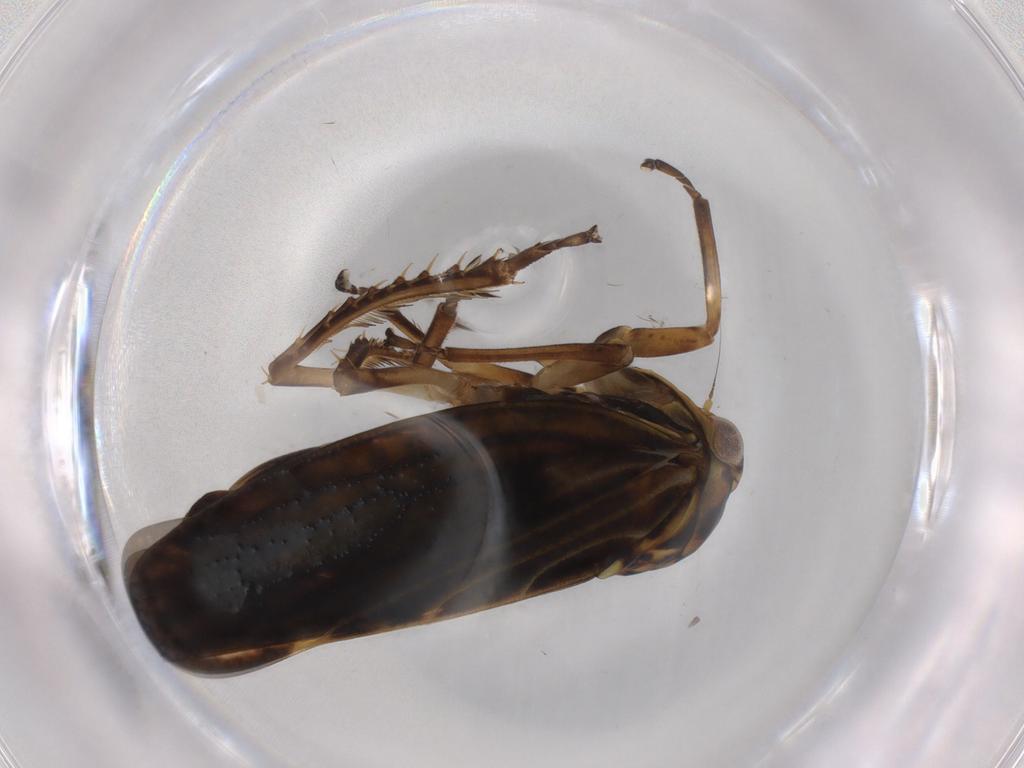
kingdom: Animalia
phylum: Arthropoda
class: Insecta
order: Hemiptera
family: Cicadellidae
